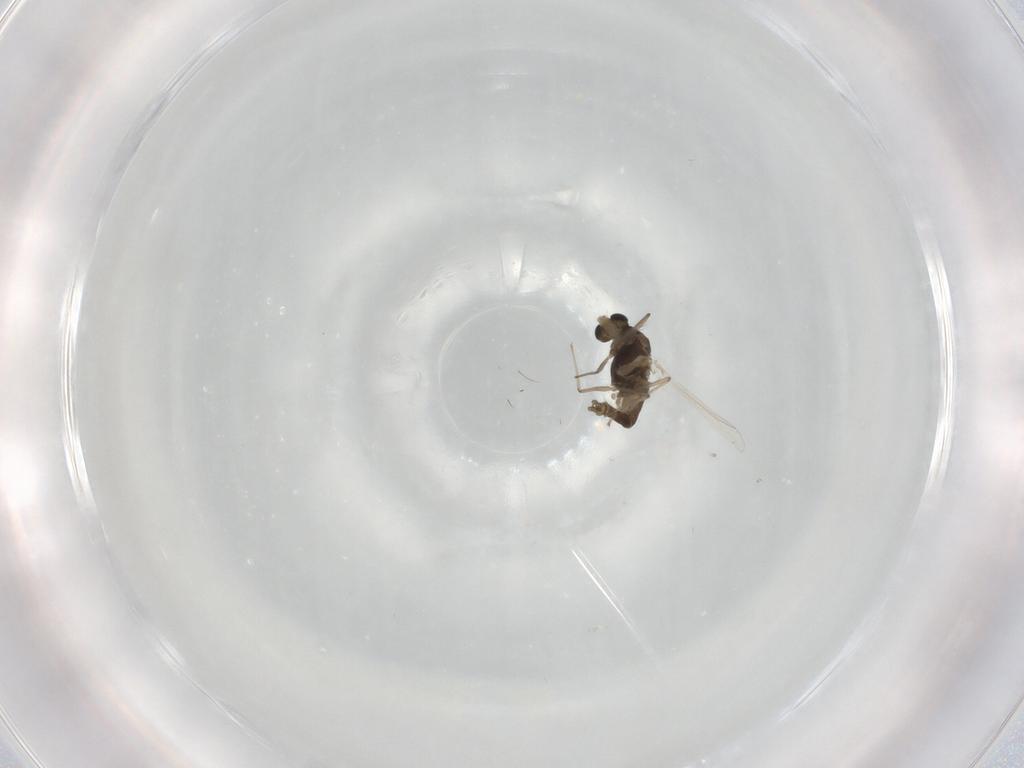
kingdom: Animalia
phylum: Arthropoda
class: Insecta
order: Diptera
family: Chironomidae
